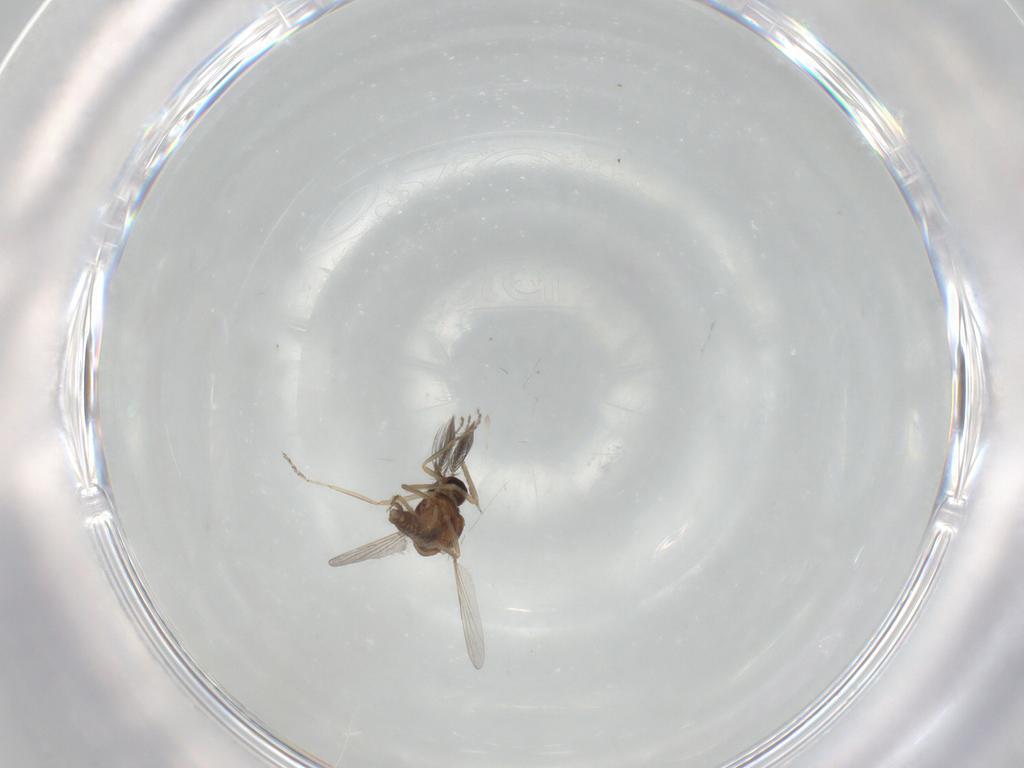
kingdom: Animalia
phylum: Arthropoda
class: Insecta
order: Diptera
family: Ceratopogonidae
